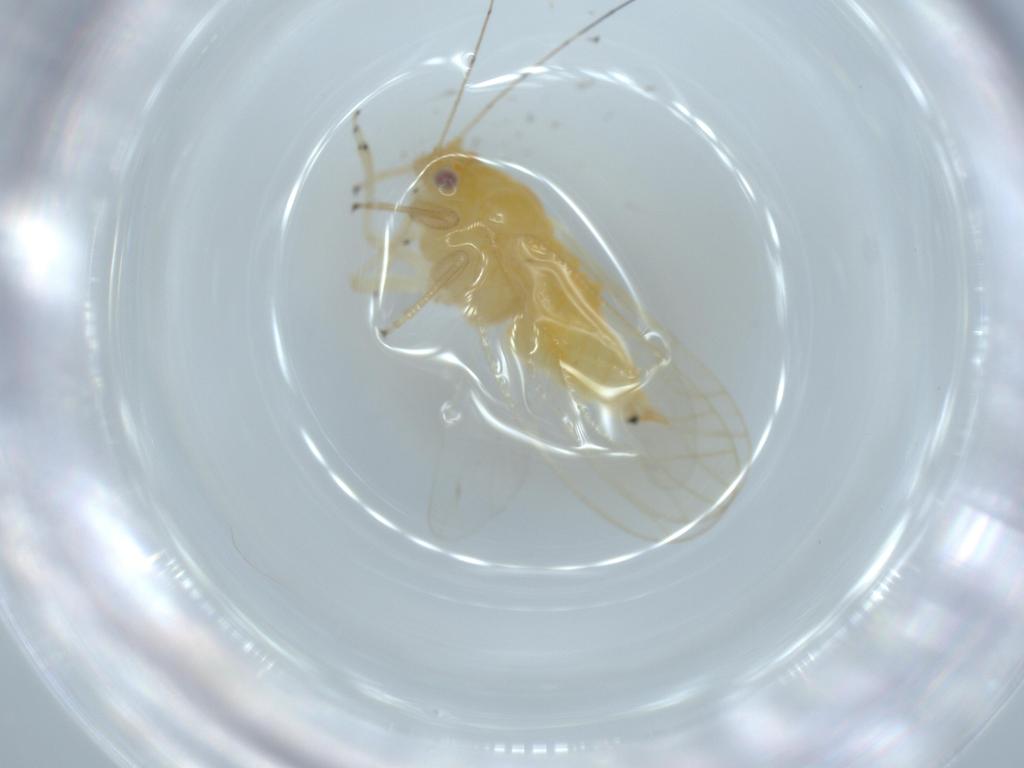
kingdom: Animalia
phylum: Arthropoda
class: Insecta
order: Hemiptera
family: Psyllidae
